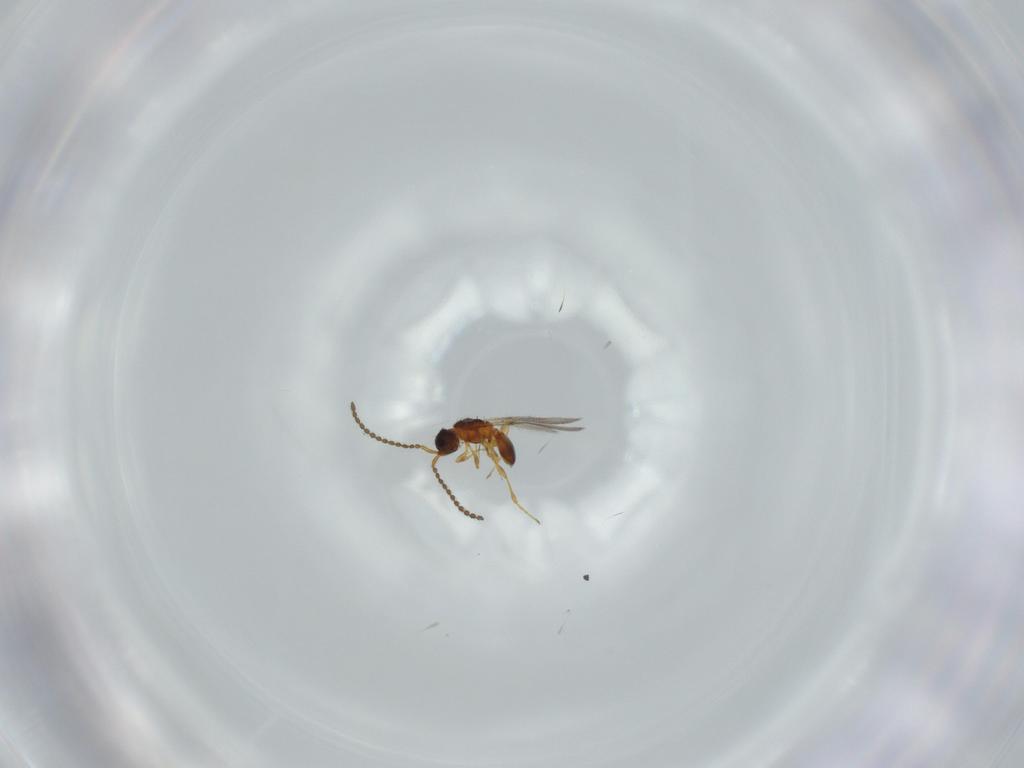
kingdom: Animalia
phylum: Arthropoda
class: Insecta
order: Hymenoptera
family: Diapriidae
